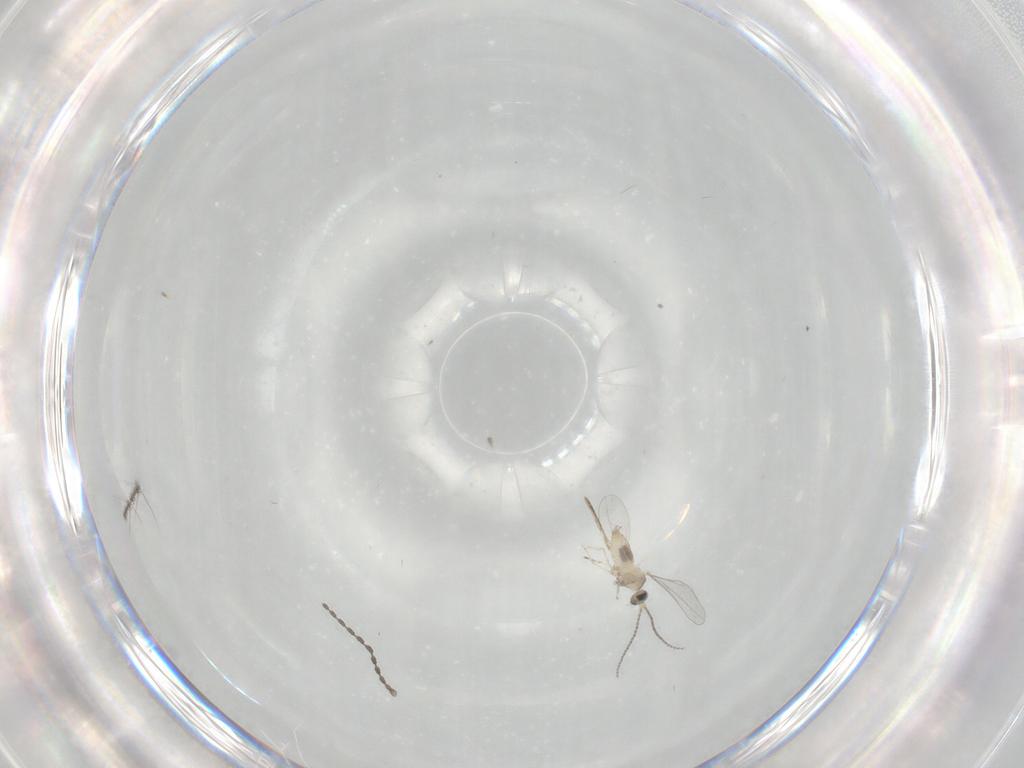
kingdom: Animalia
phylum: Arthropoda
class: Insecta
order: Diptera
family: Cecidomyiidae
